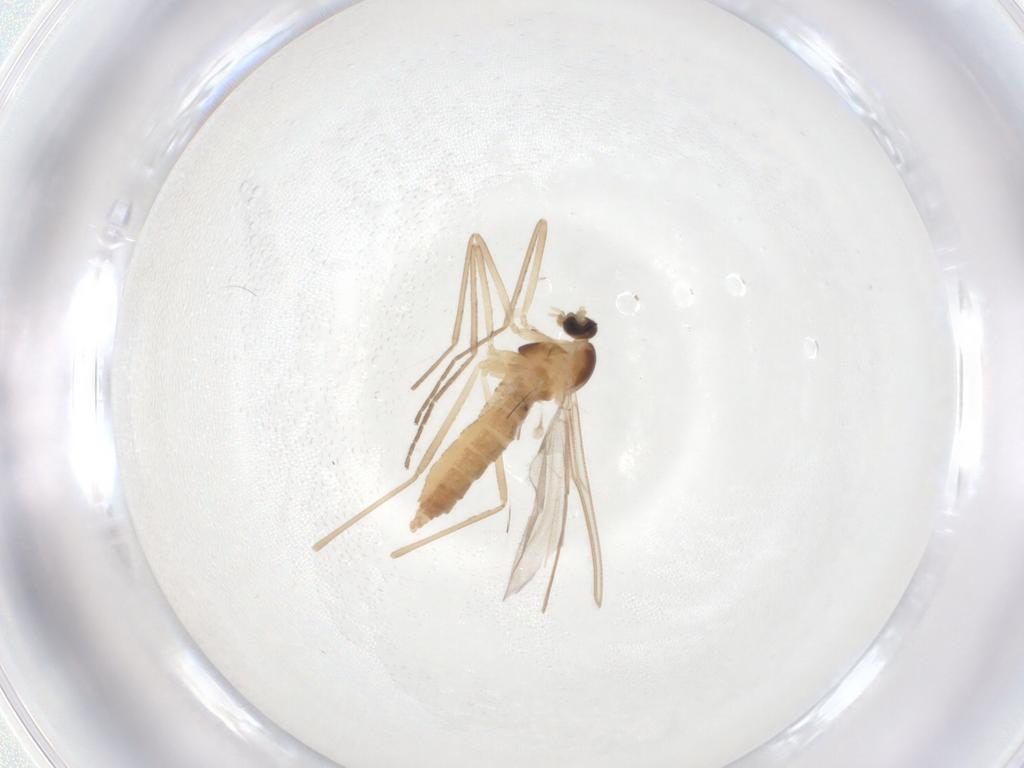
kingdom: Animalia
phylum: Arthropoda
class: Insecta
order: Diptera
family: Cecidomyiidae
